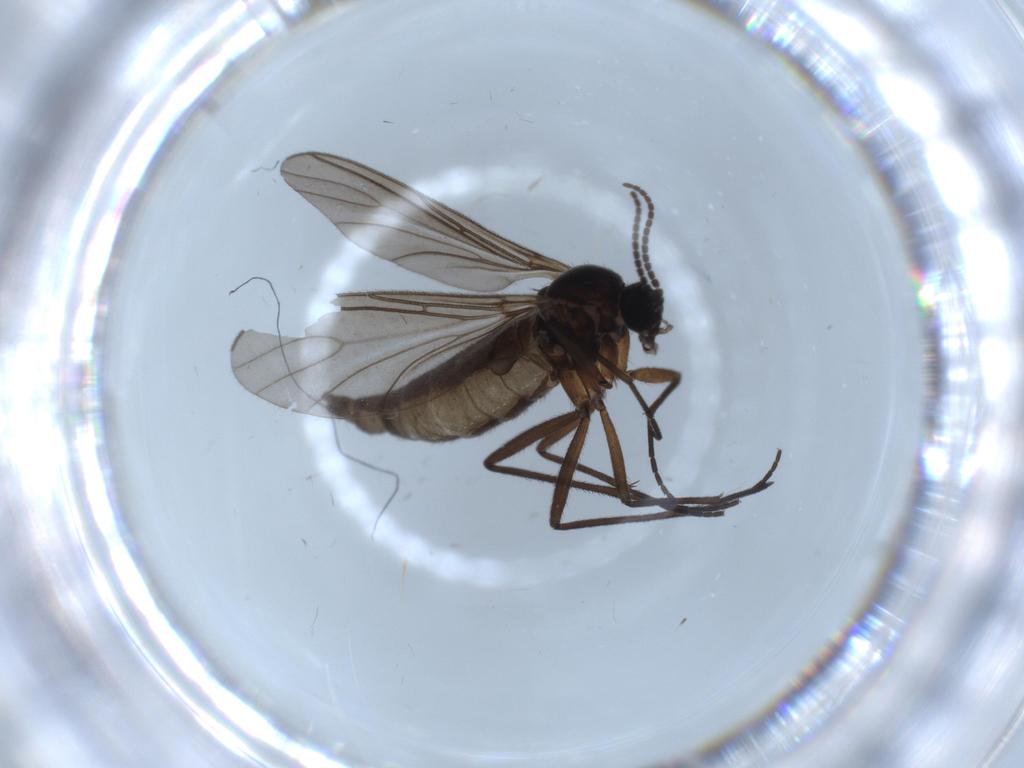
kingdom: Animalia
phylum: Arthropoda
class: Insecta
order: Diptera
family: Sciaridae
